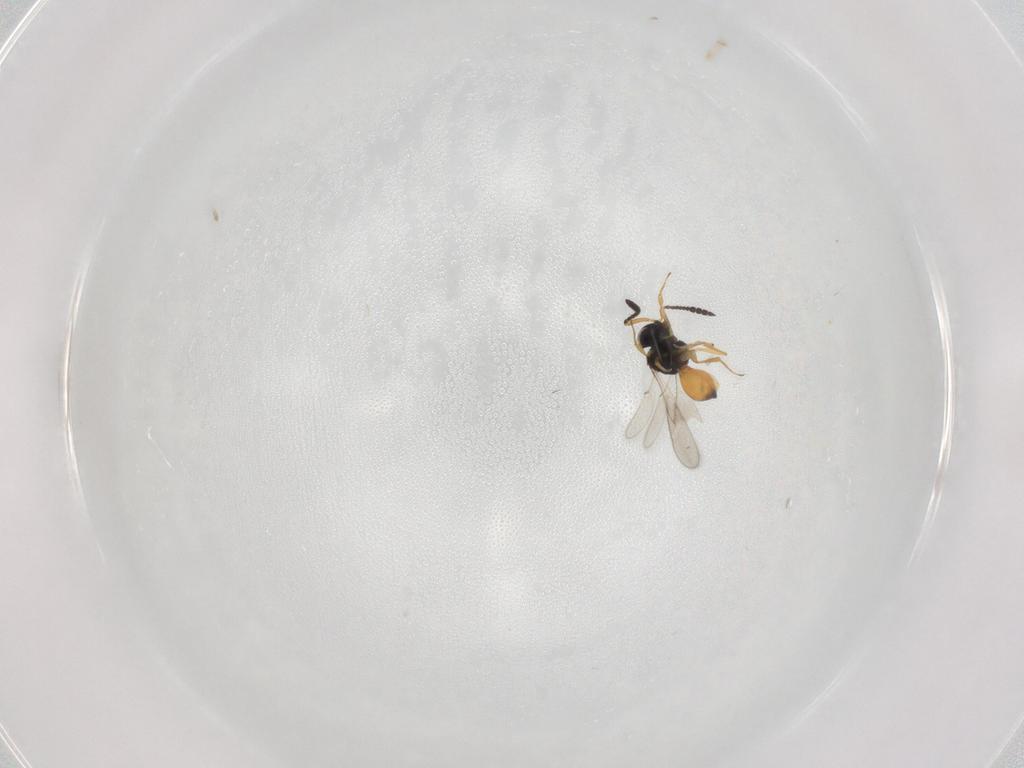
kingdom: Animalia
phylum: Arthropoda
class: Insecta
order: Hymenoptera
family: Scelionidae
